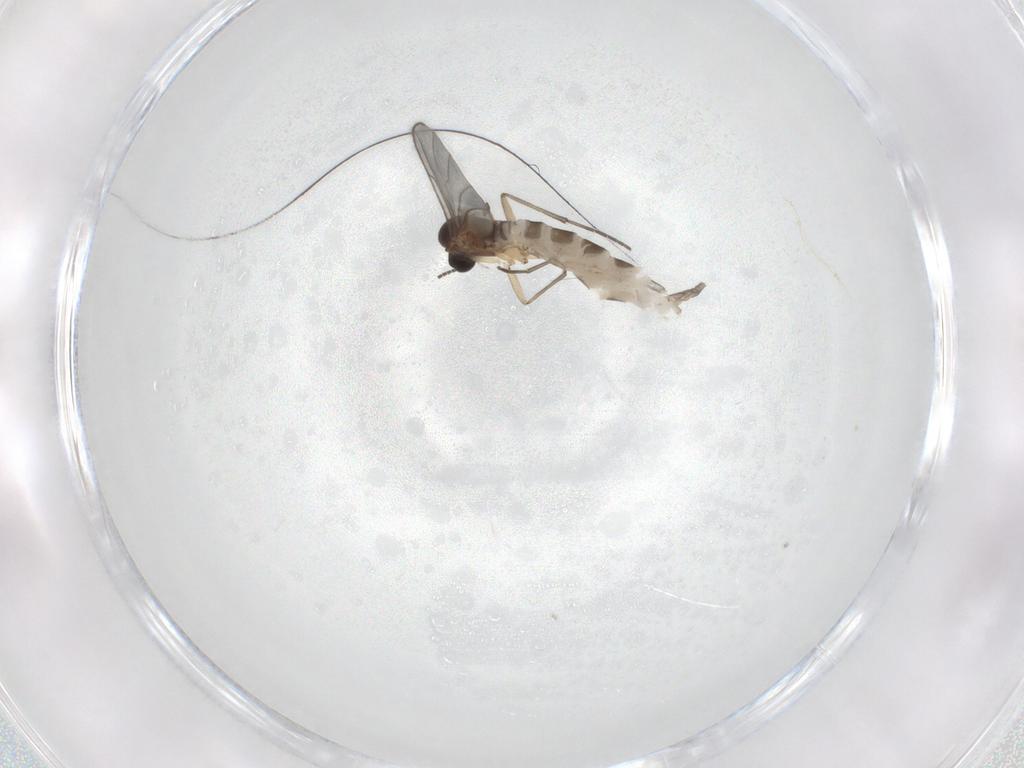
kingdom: Animalia
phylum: Arthropoda
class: Insecta
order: Diptera
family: Sciaridae
